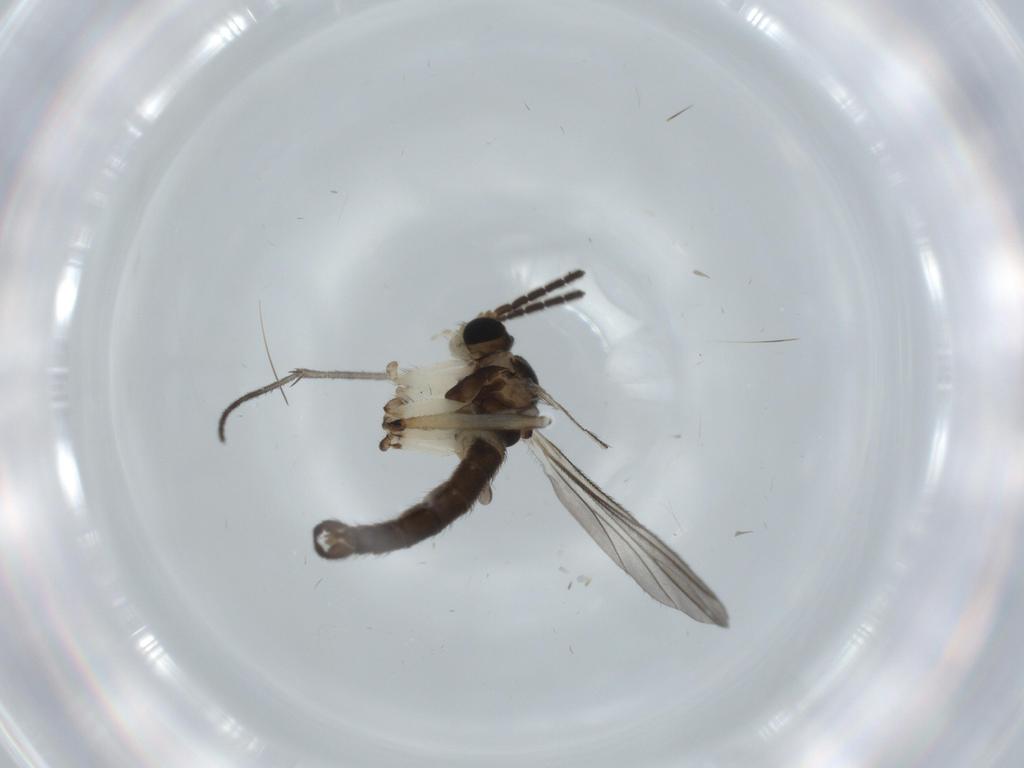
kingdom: Animalia
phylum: Arthropoda
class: Insecta
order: Diptera
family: Sciaridae
